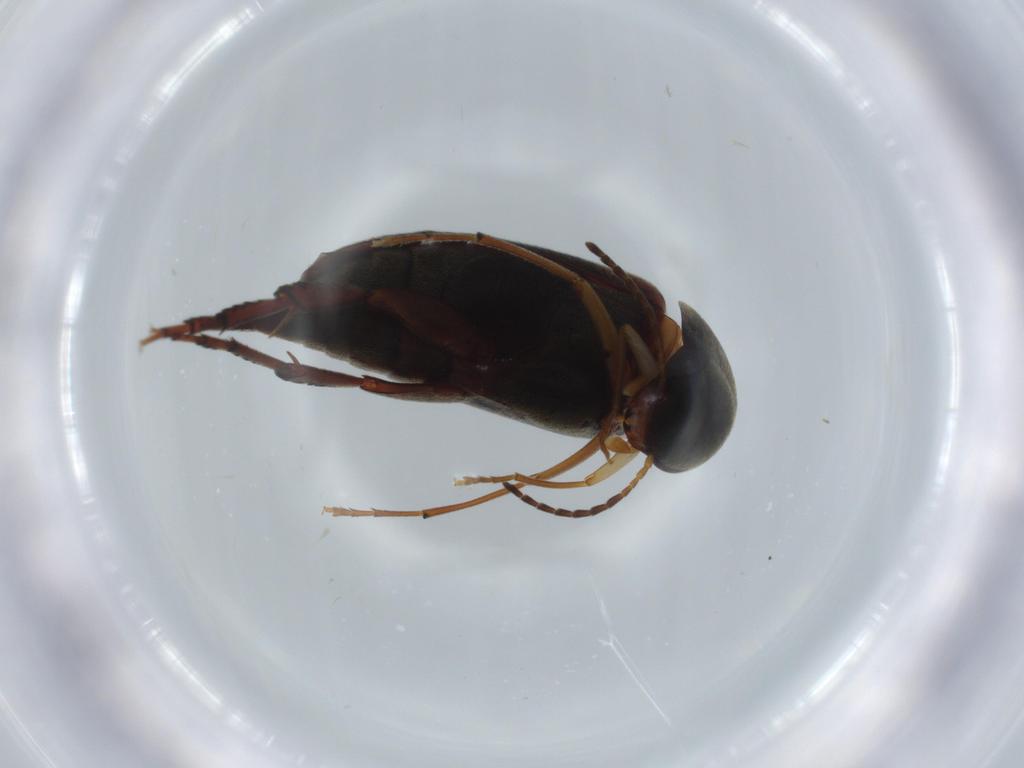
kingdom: Animalia
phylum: Arthropoda
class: Insecta
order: Coleoptera
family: Mordellidae
